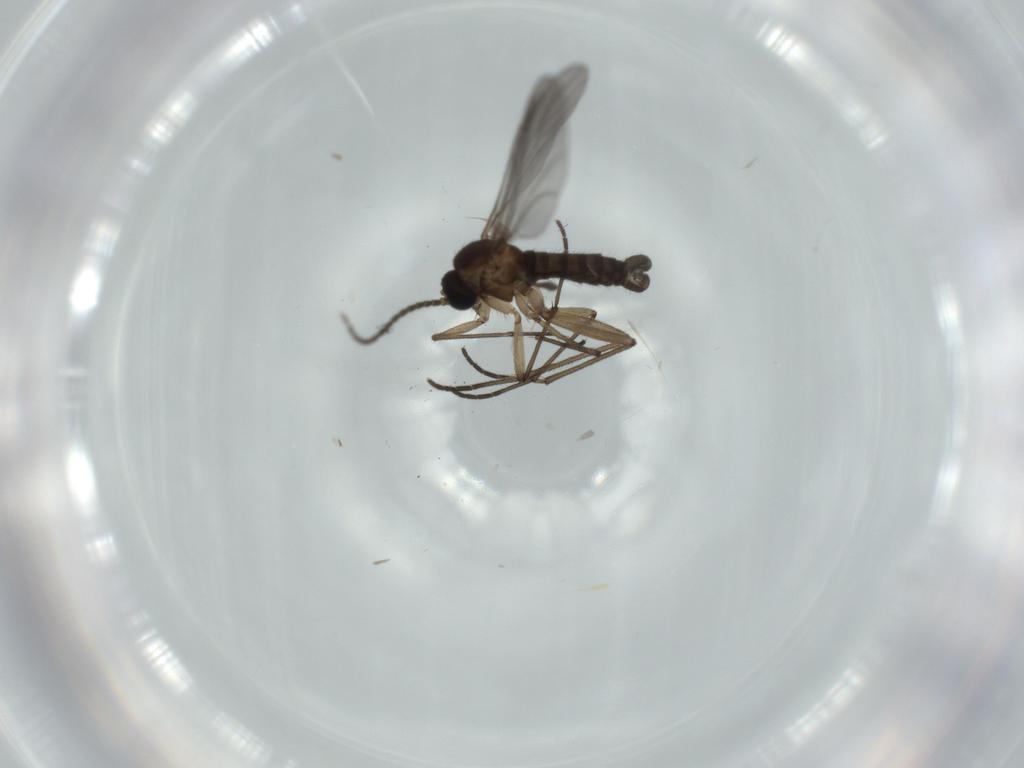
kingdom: Animalia
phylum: Arthropoda
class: Insecta
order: Diptera
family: Sciaridae
